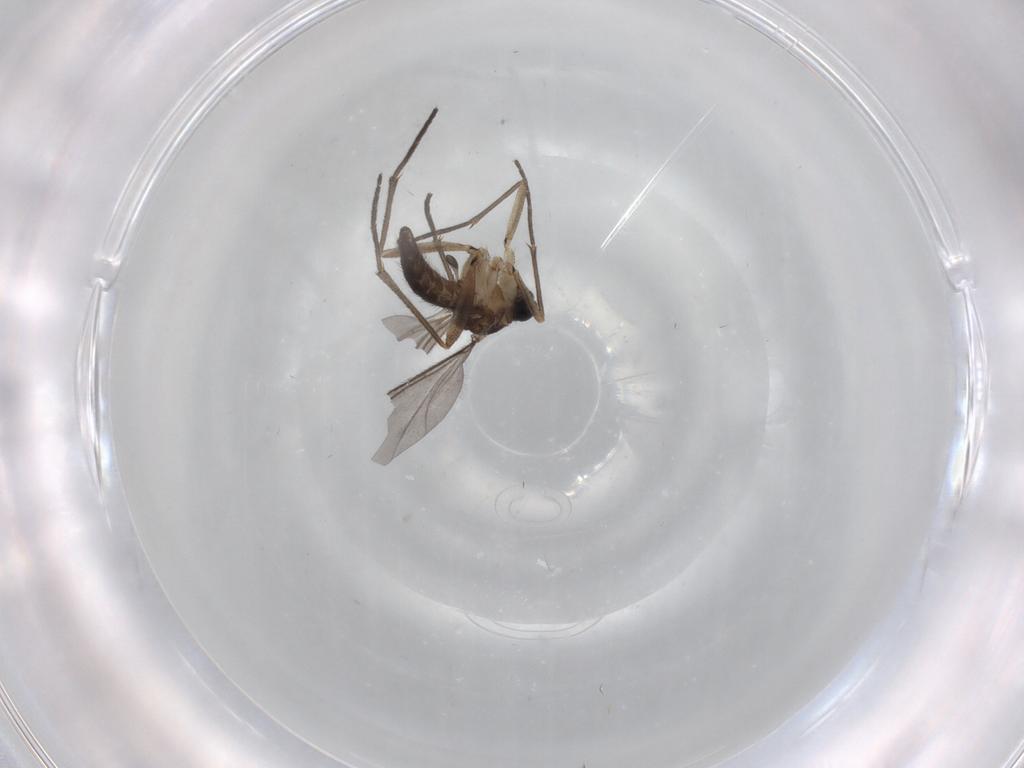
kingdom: Animalia
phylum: Arthropoda
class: Insecta
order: Diptera
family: Sciaridae
